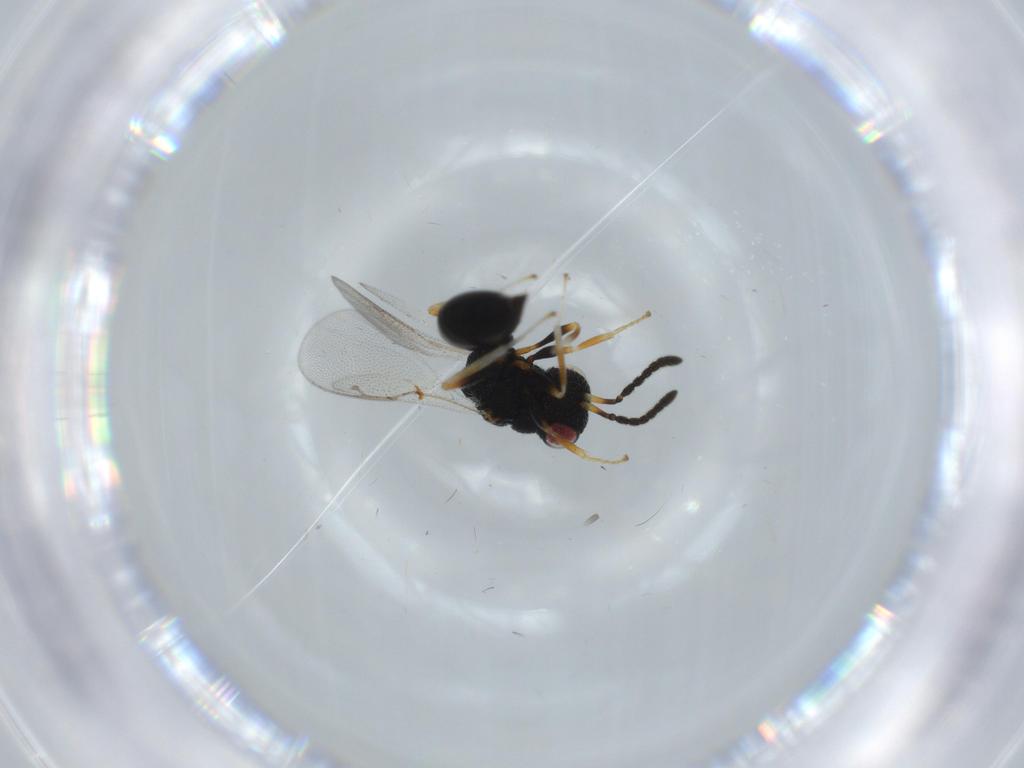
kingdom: Animalia
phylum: Arthropoda
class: Insecta
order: Hymenoptera
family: Eurytomidae
